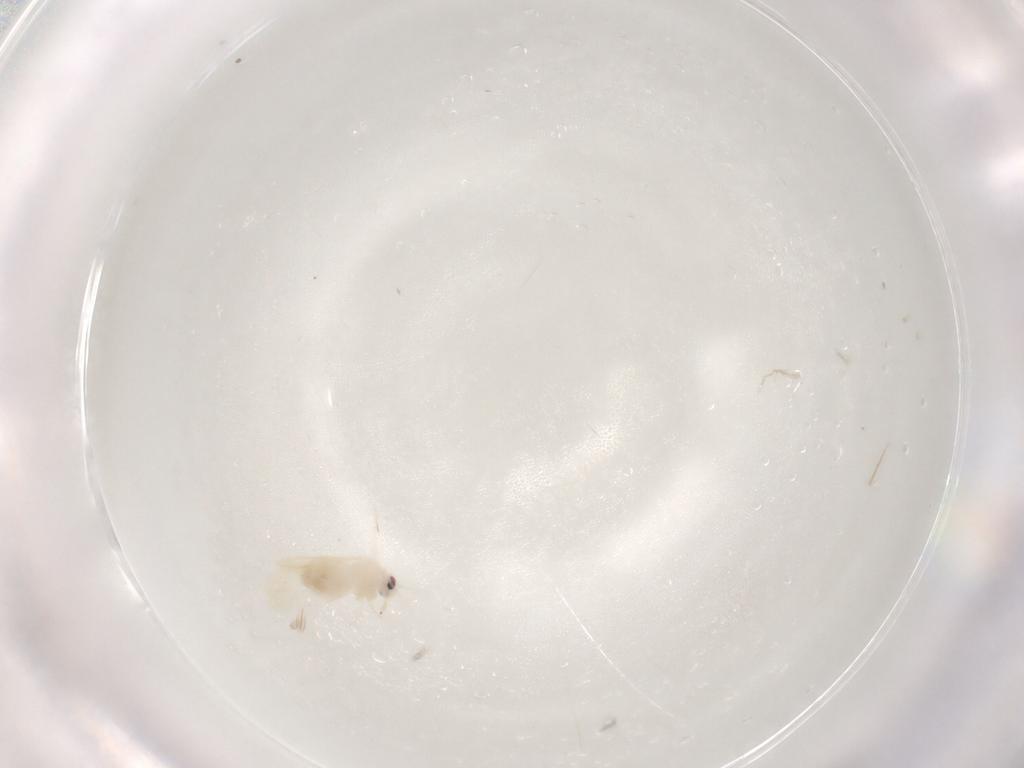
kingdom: Animalia
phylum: Arthropoda
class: Insecta
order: Hemiptera
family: Aleyrodidae
